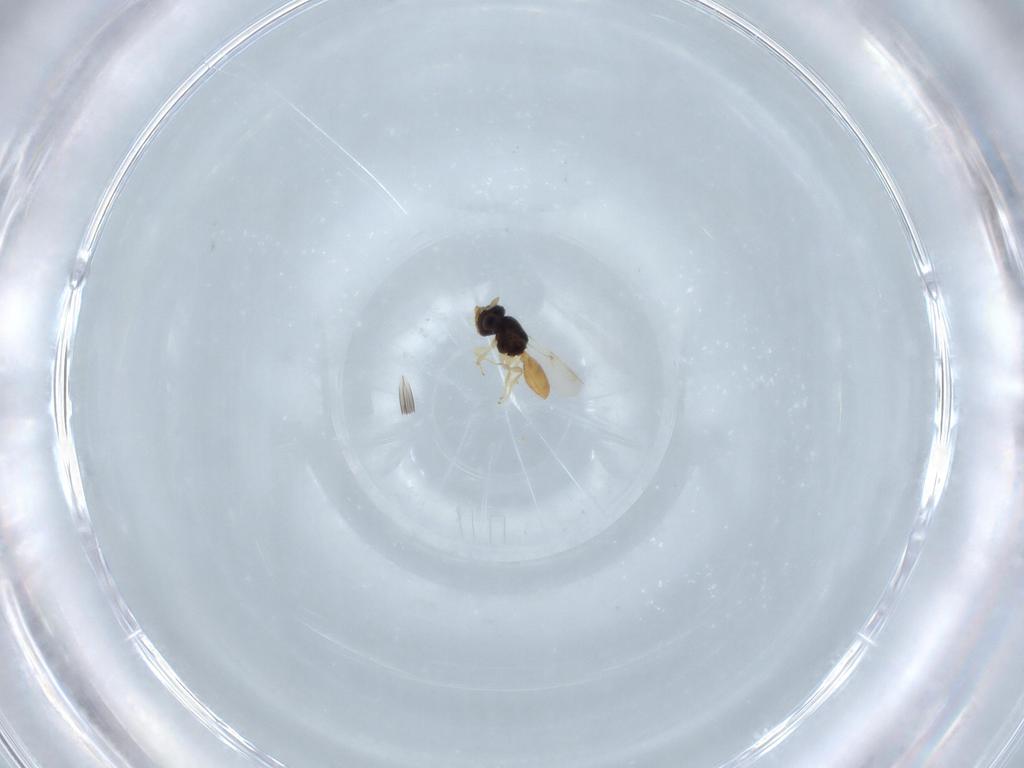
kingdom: Animalia
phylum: Arthropoda
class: Insecta
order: Hymenoptera
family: Scelionidae
